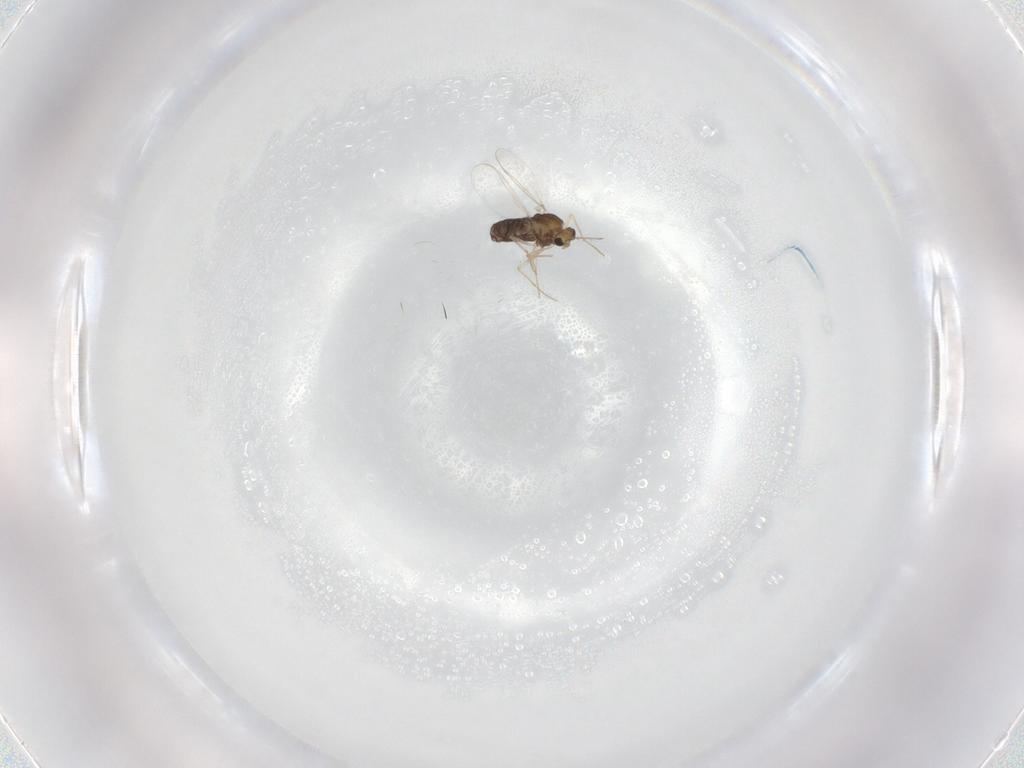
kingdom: Animalia
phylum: Arthropoda
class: Insecta
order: Diptera
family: Chironomidae
